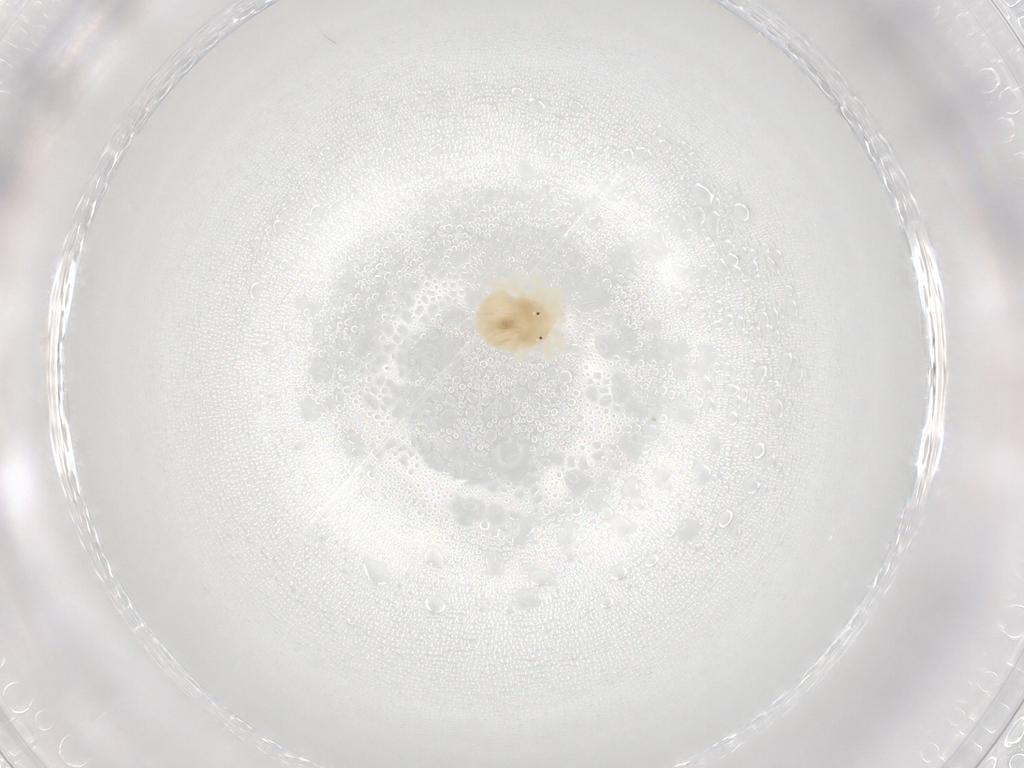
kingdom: Animalia
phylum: Arthropoda
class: Arachnida
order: Trombidiformes
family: Eupodidae
